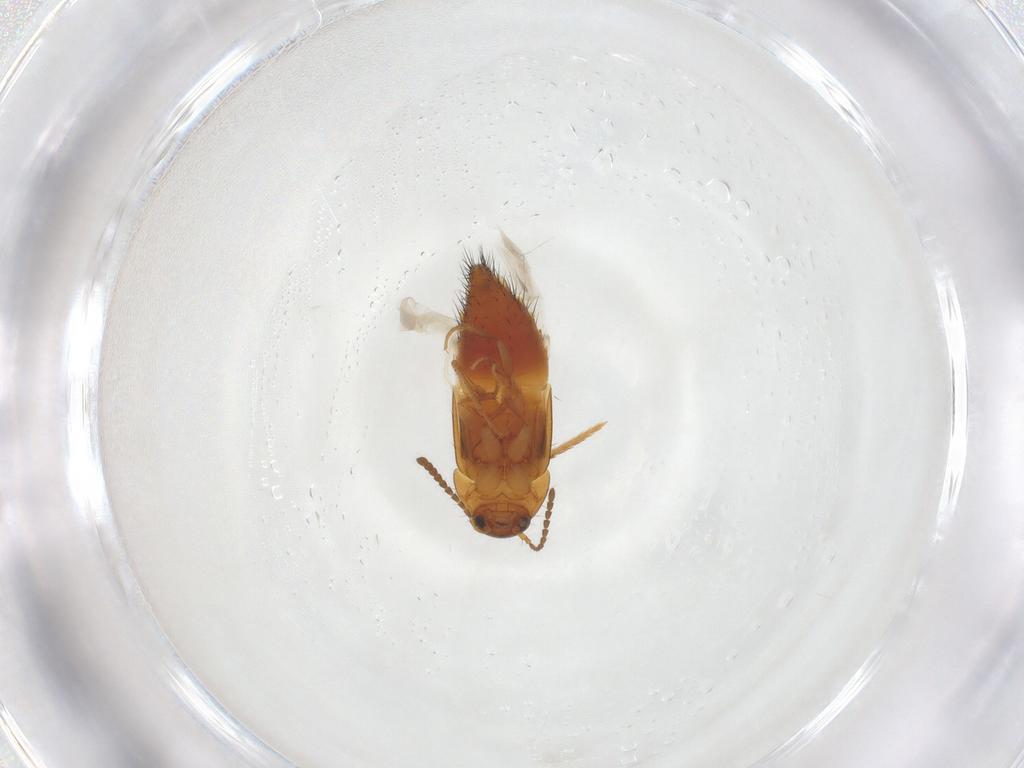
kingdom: Animalia
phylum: Arthropoda
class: Insecta
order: Coleoptera
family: Staphylinidae
